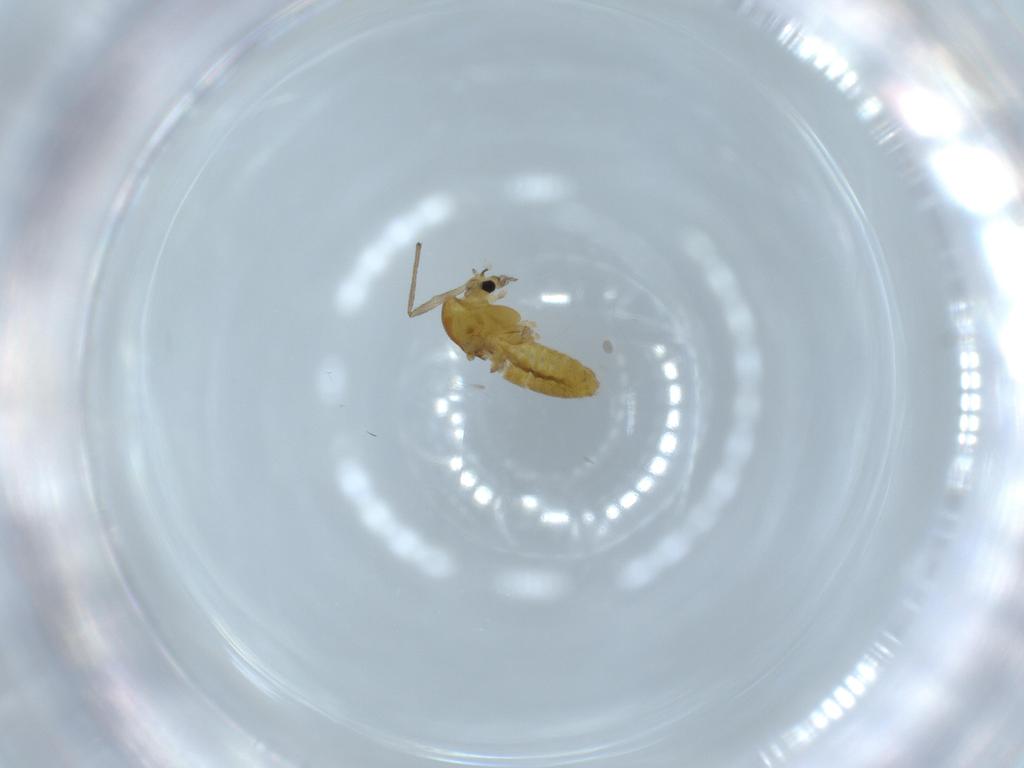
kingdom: Animalia
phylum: Arthropoda
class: Insecta
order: Diptera
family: Chironomidae
